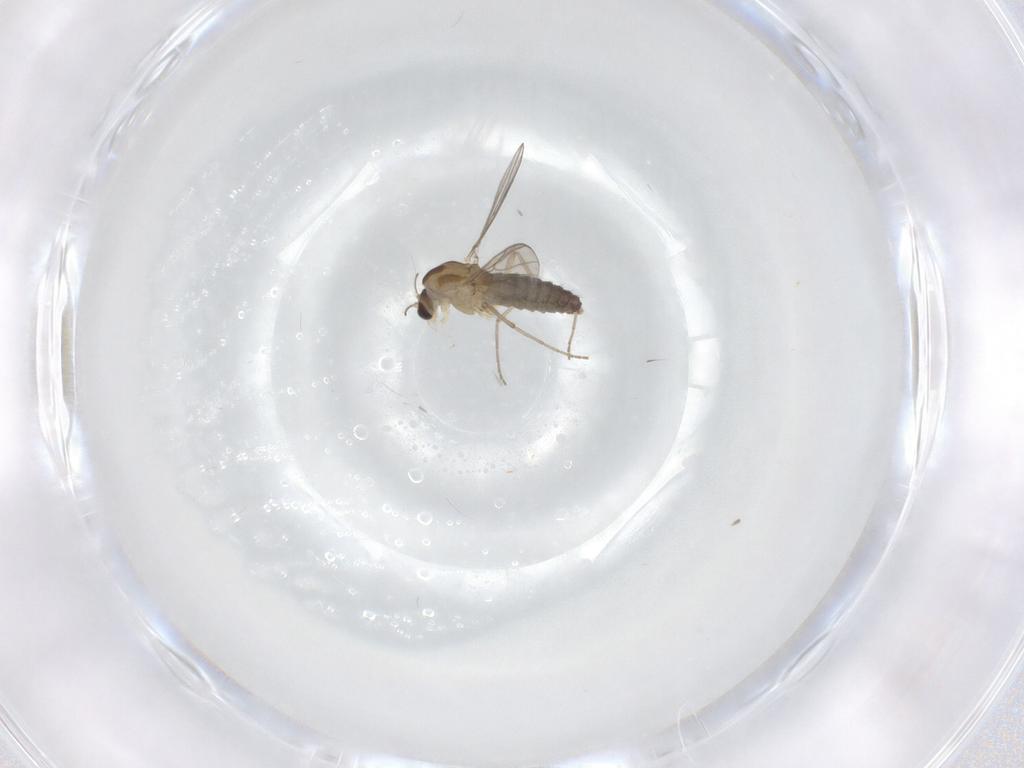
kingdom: Animalia
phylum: Arthropoda
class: Insecta
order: Diptera
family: Chironomidae
